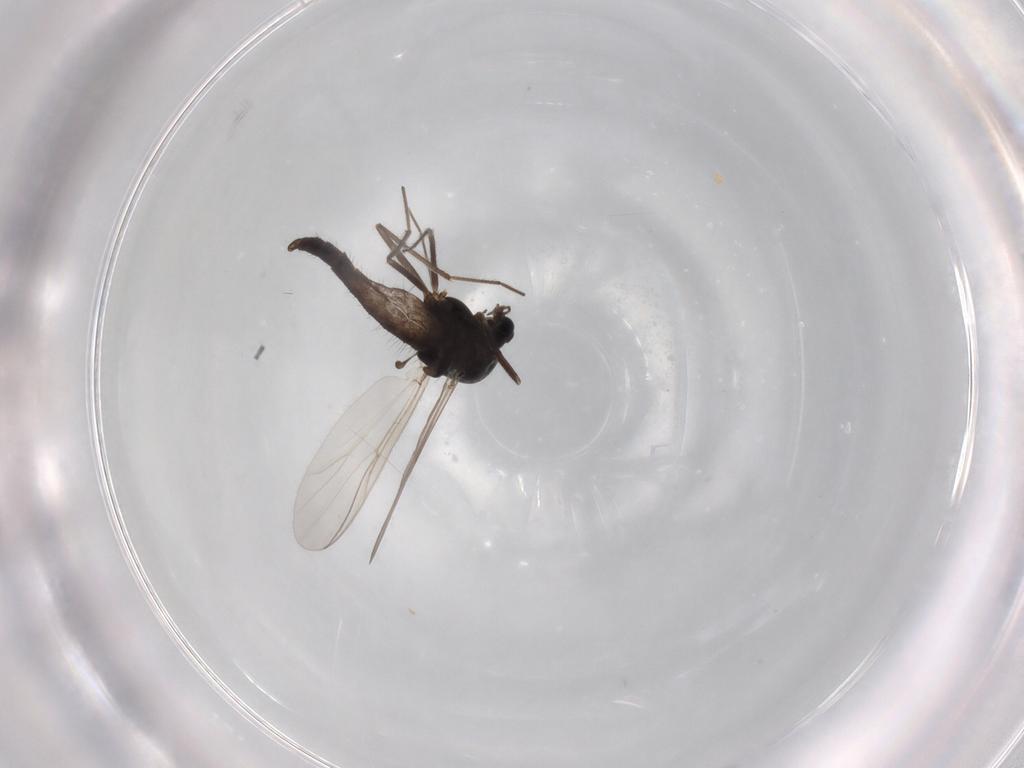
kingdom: Animalia
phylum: Arthropoda
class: Insecta
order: Diptera
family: Chironomidae
